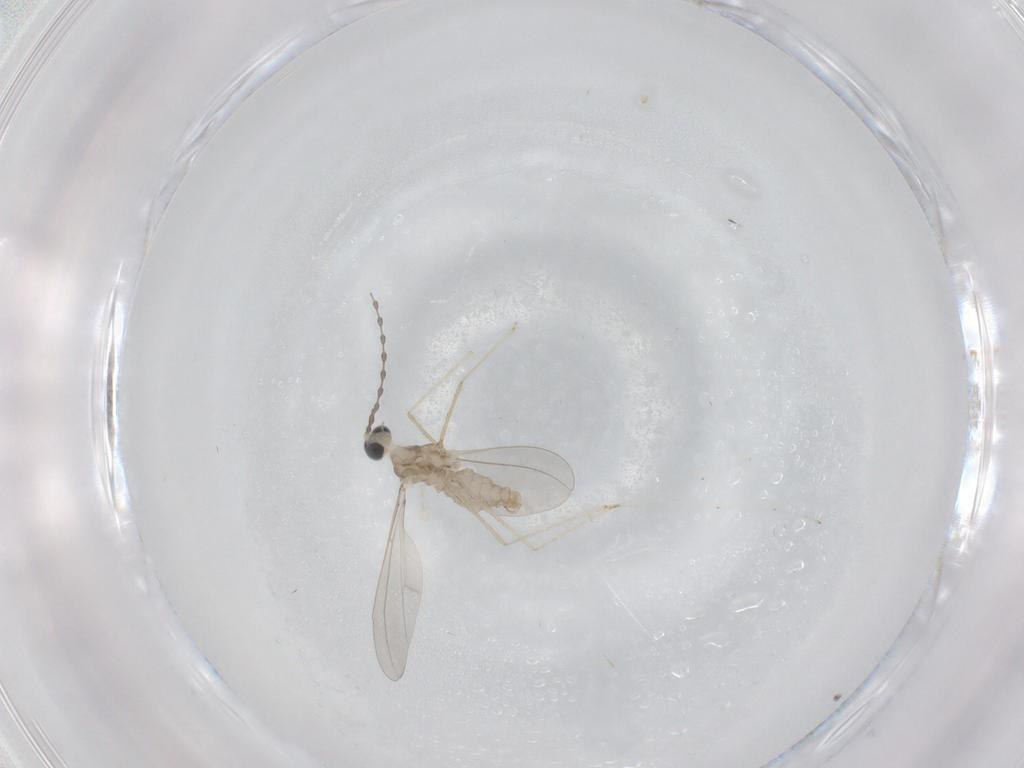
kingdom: Animalia
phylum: Arthropoda
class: Insecta
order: Diptera
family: Cecidomyiidae
